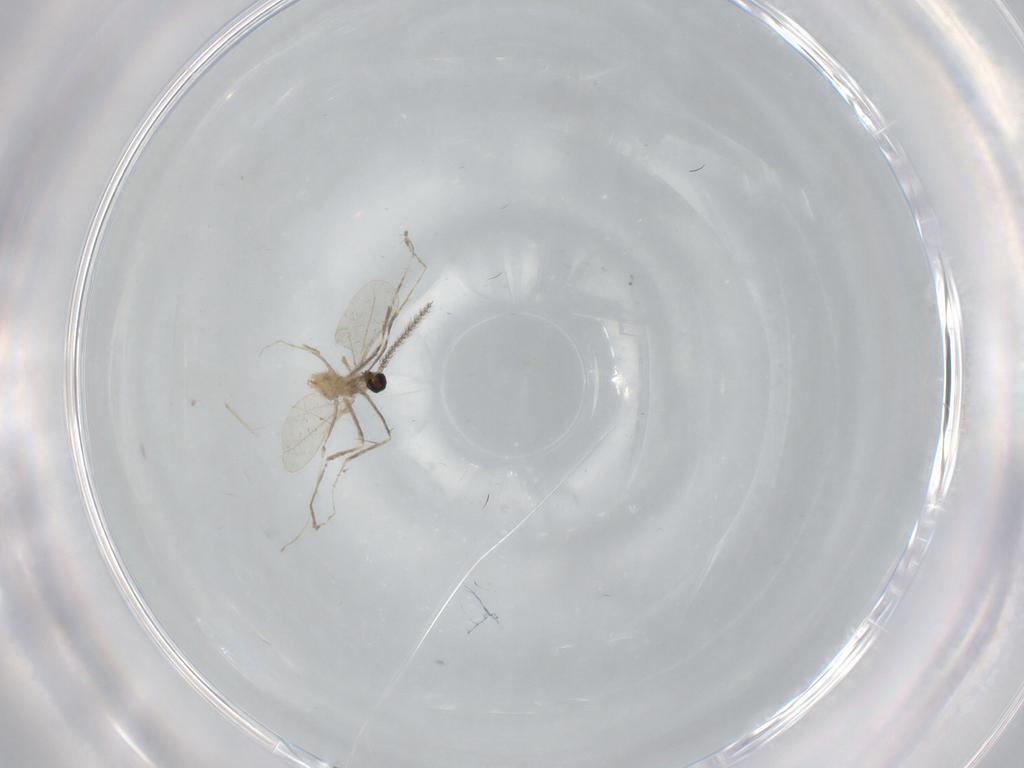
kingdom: Animalia
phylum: Arthropoda
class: Insecta
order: Diptera
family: Cecidomyiidae
